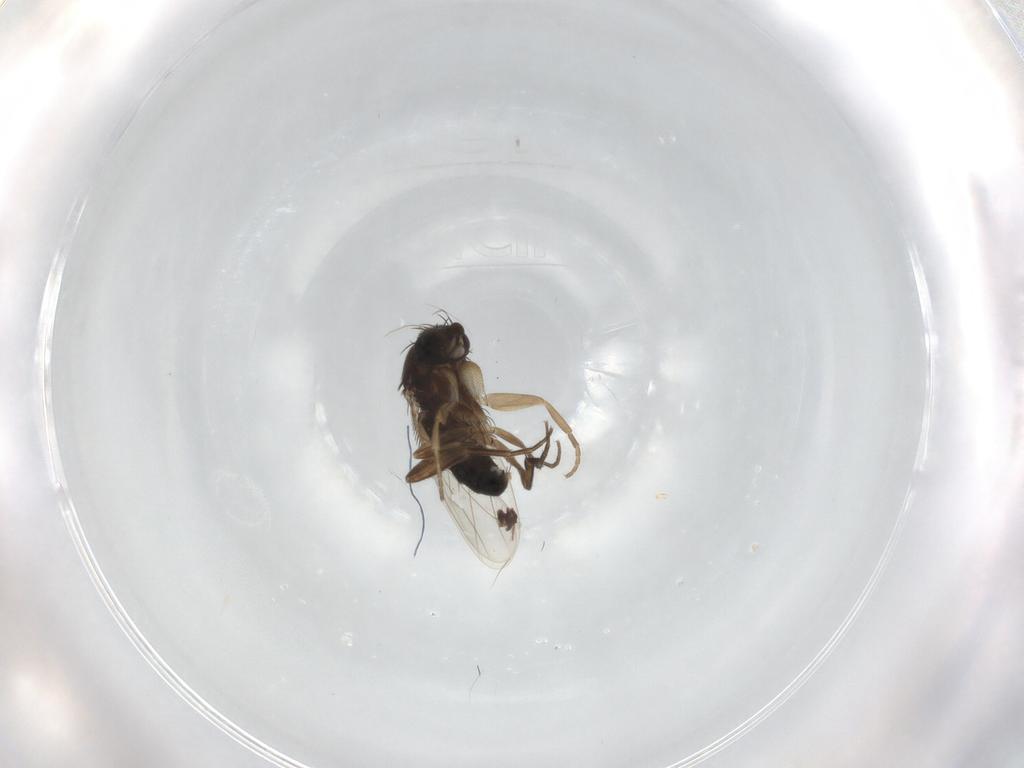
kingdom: Animalia
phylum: Arthropoda
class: Insecta
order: Diptera
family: Phoridae
